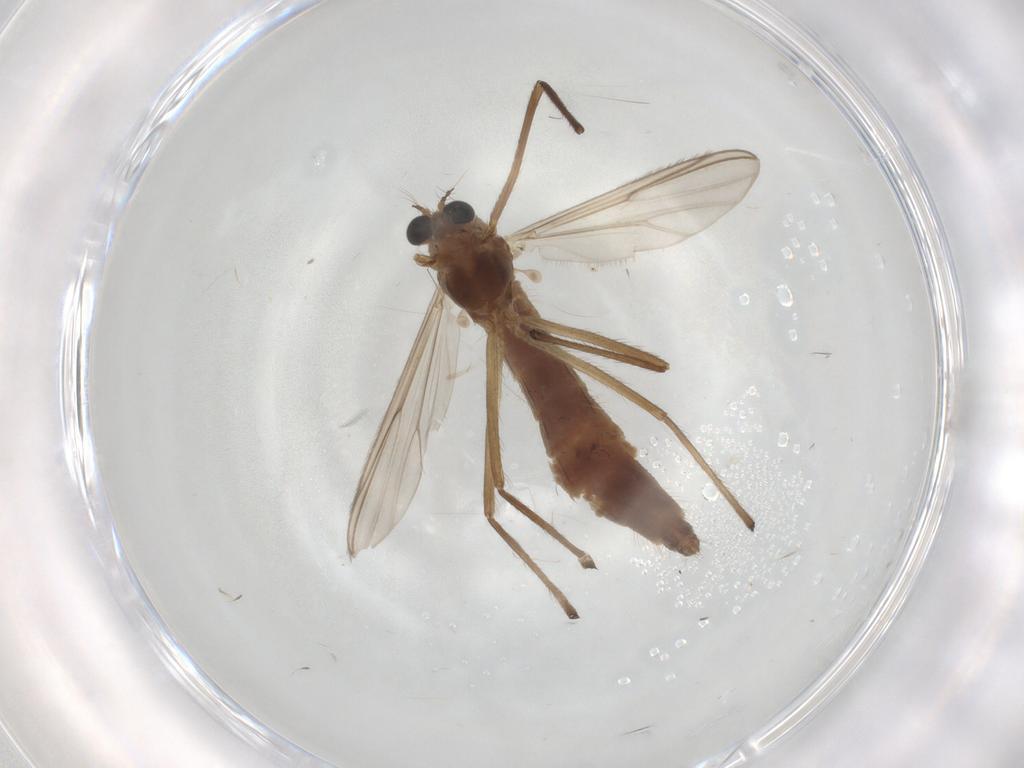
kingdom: Animalia
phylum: Arthropoda
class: Insecta
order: Diptera
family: Chironomidae
